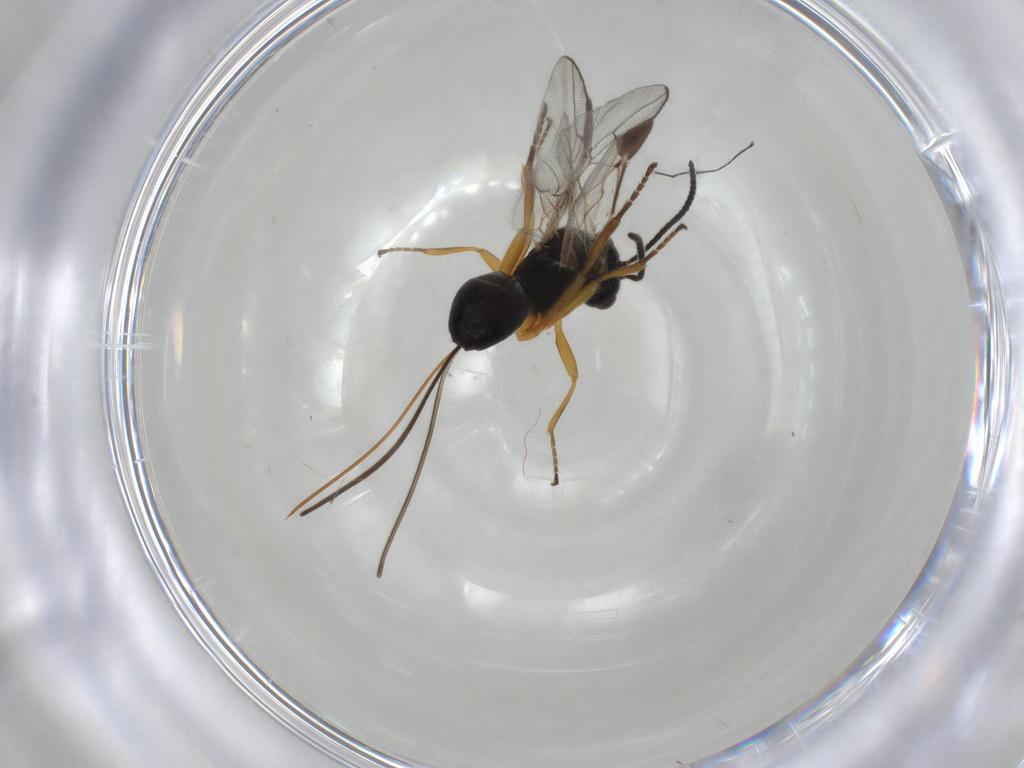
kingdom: Animalia
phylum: Arthropoda
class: Insecta
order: Hymenoptera
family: Braconidae
